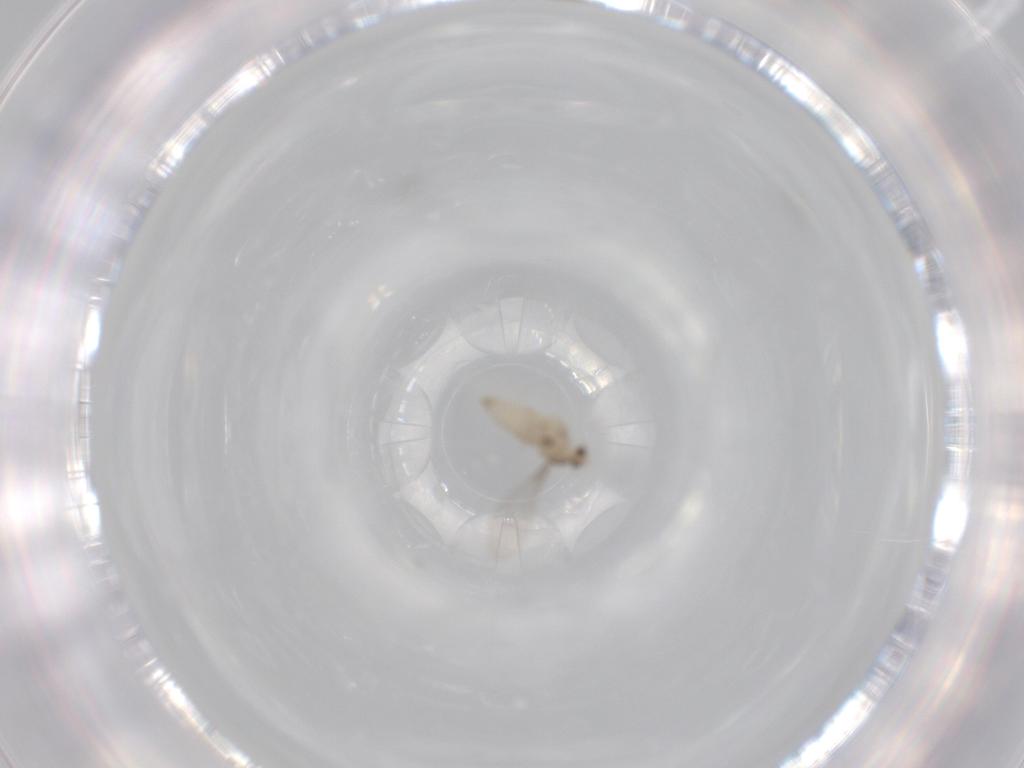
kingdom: Animalia
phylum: Arthropoda
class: Insecta
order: Diptera
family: Cecidomyiidae
